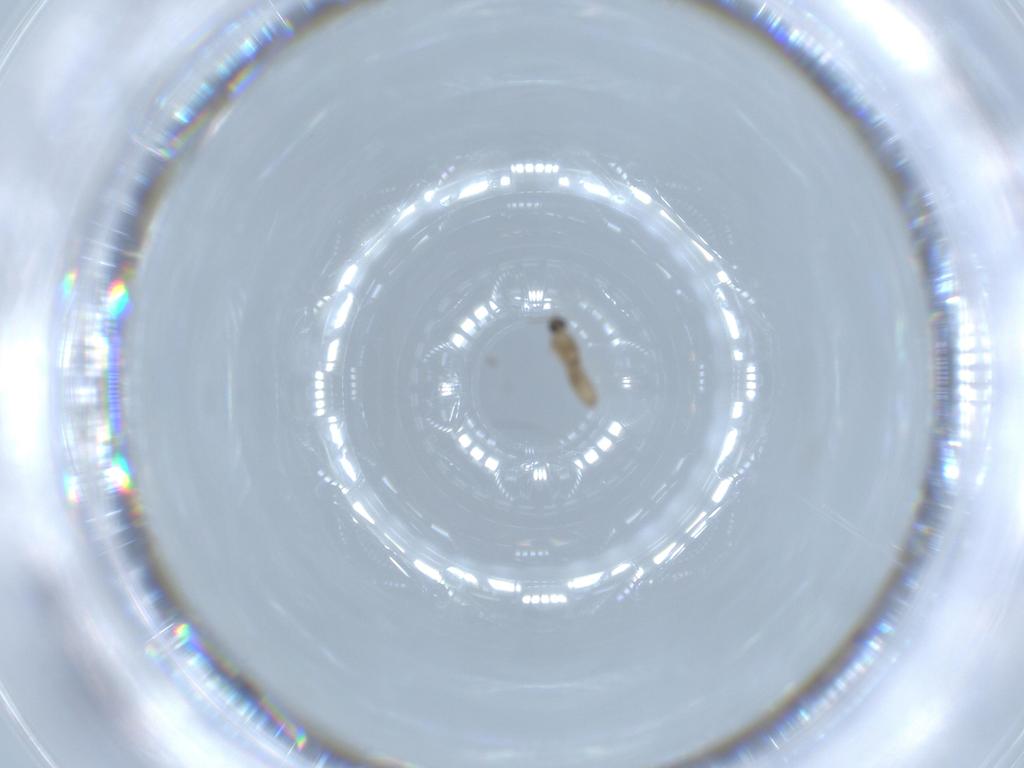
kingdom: Animalia
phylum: Arthropoda
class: Insecta
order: Diptera
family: Cecidomyiidae
